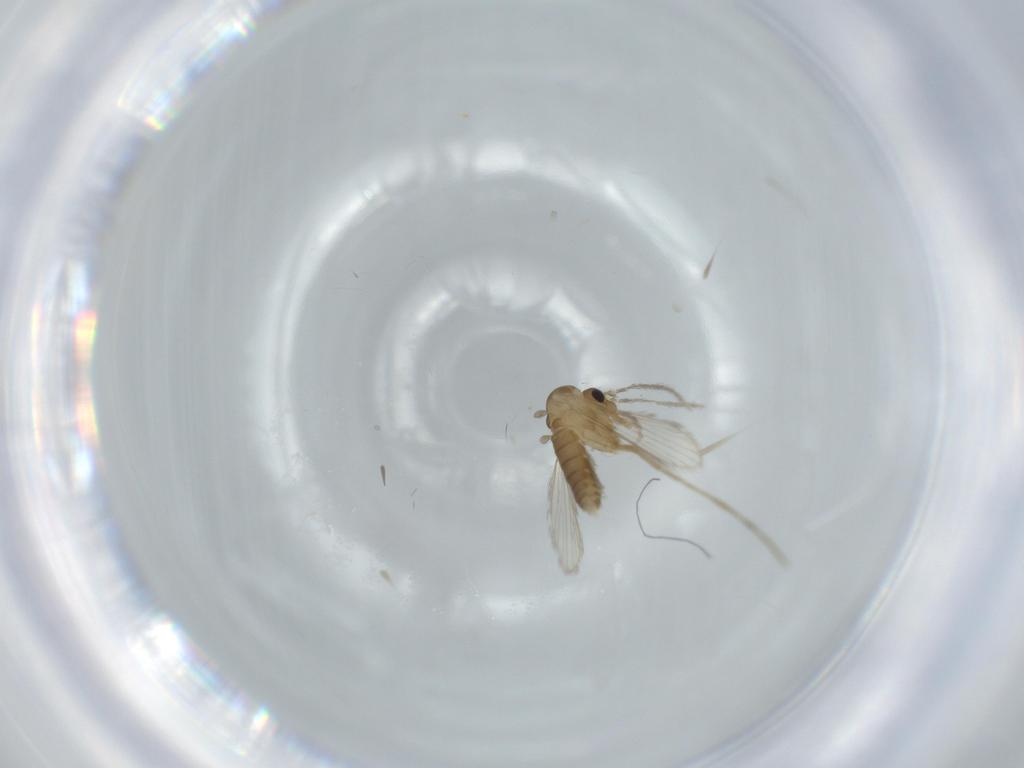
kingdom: Animalia
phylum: Arthropoda
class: Insecta
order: Diptera
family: Psychodidae
